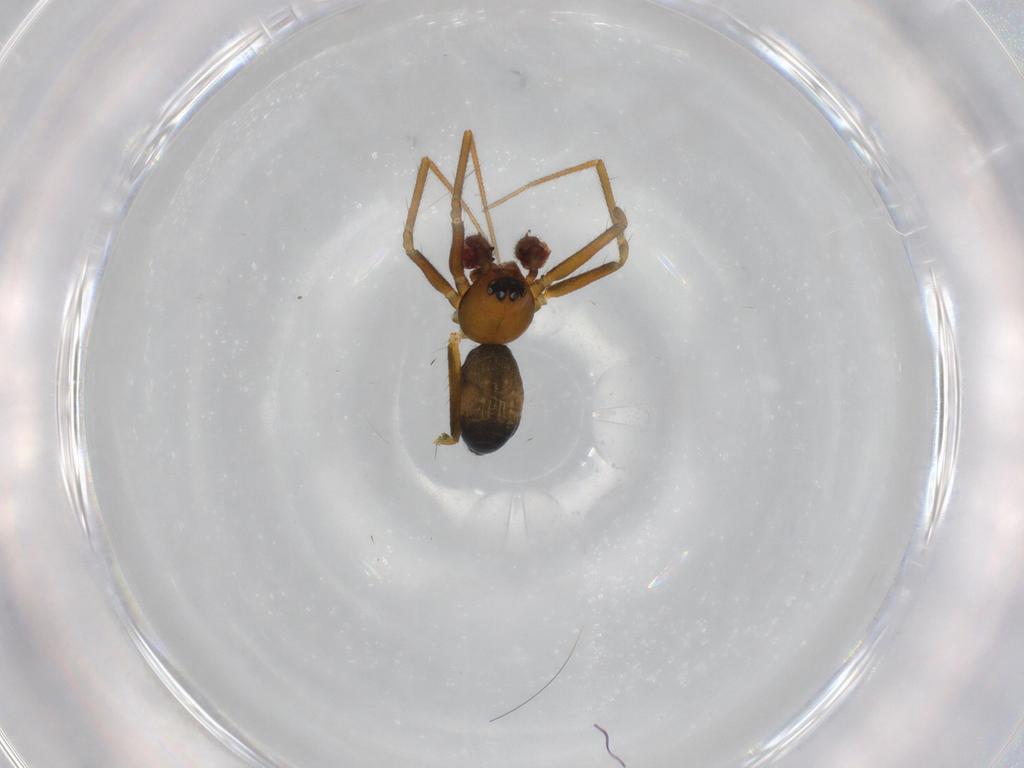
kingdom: Animalia
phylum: Arthropoda
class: Arachnida
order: Araneae
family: Linyphiidae
